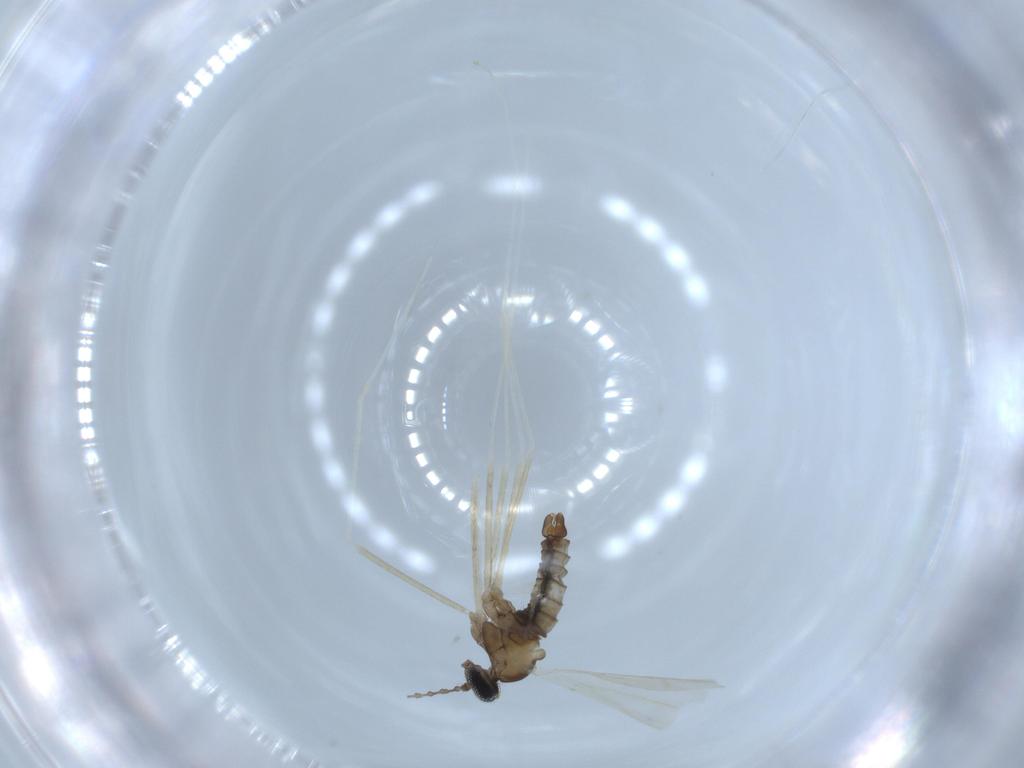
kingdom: Animalia
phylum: Arthropoda
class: Insecta
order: Diptera
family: Cecidomyiidae
